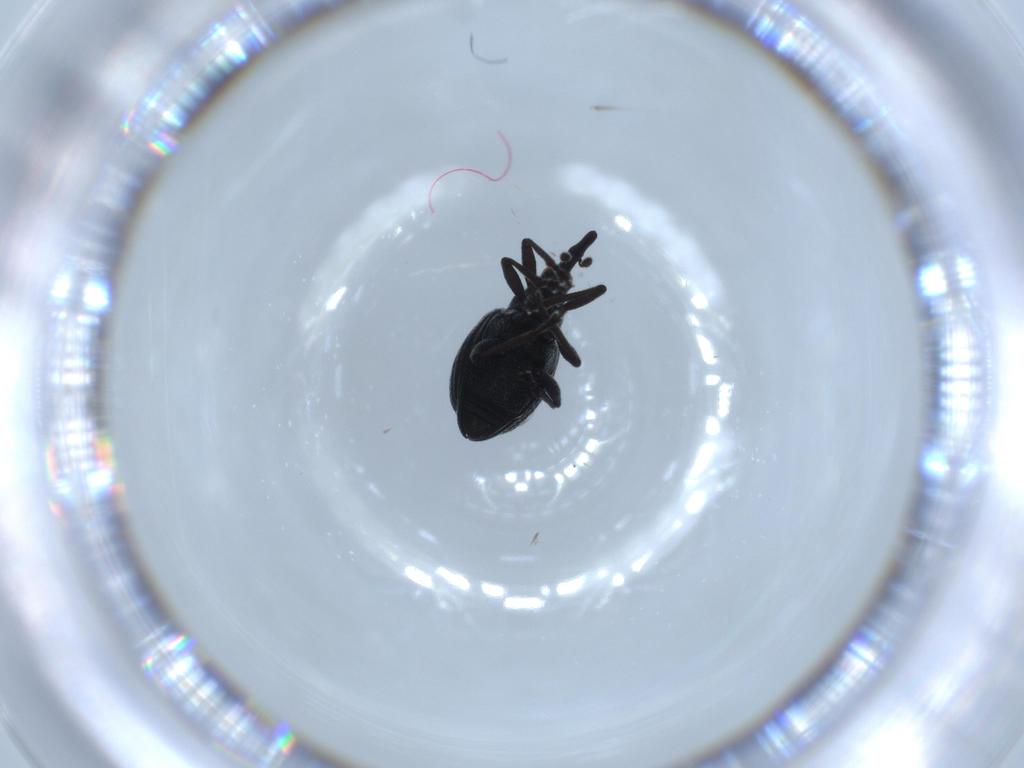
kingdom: Animalia
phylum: Arthropoda
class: Insecta
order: Coleoptera
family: Brentidae
